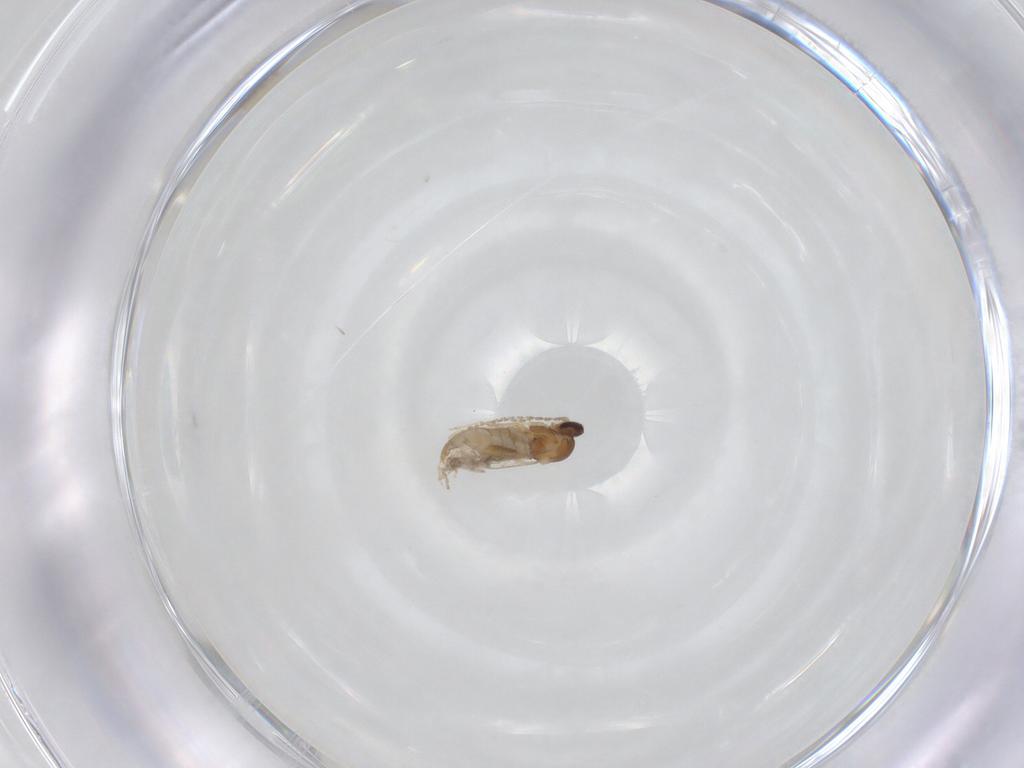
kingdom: Animalia
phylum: Arthropoda
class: Insecta
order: Diptera
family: Cecidomyiidae
